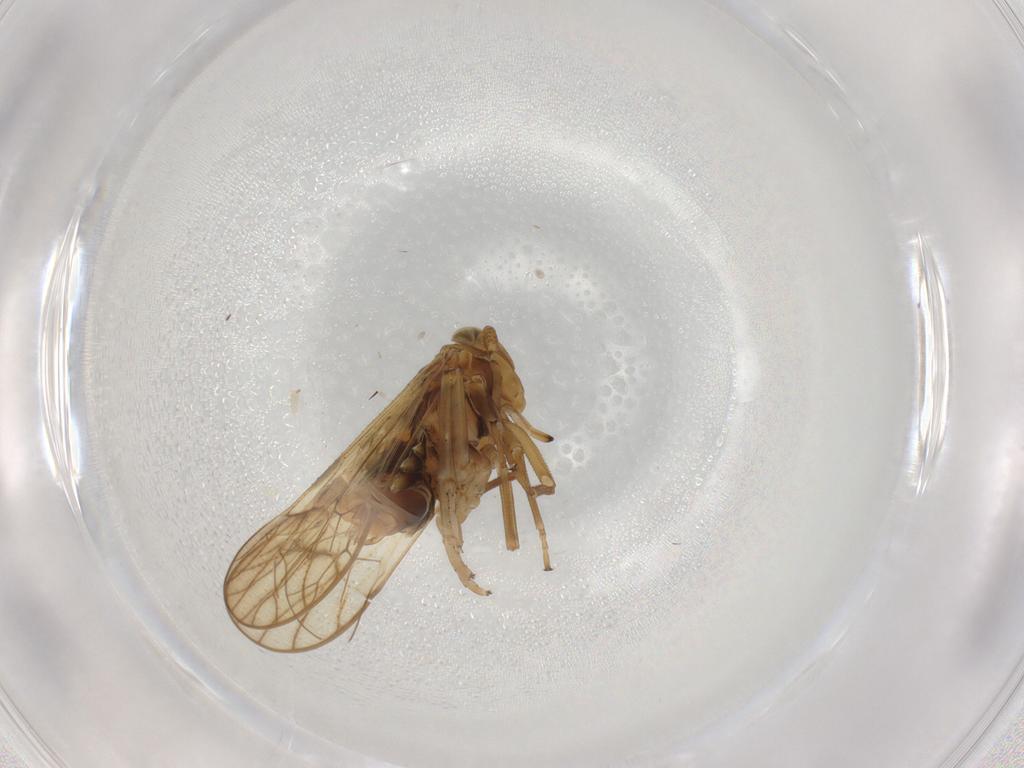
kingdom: Animalia
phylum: Arthropoda
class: Insecta
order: Hemiptera
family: Delphacidae
